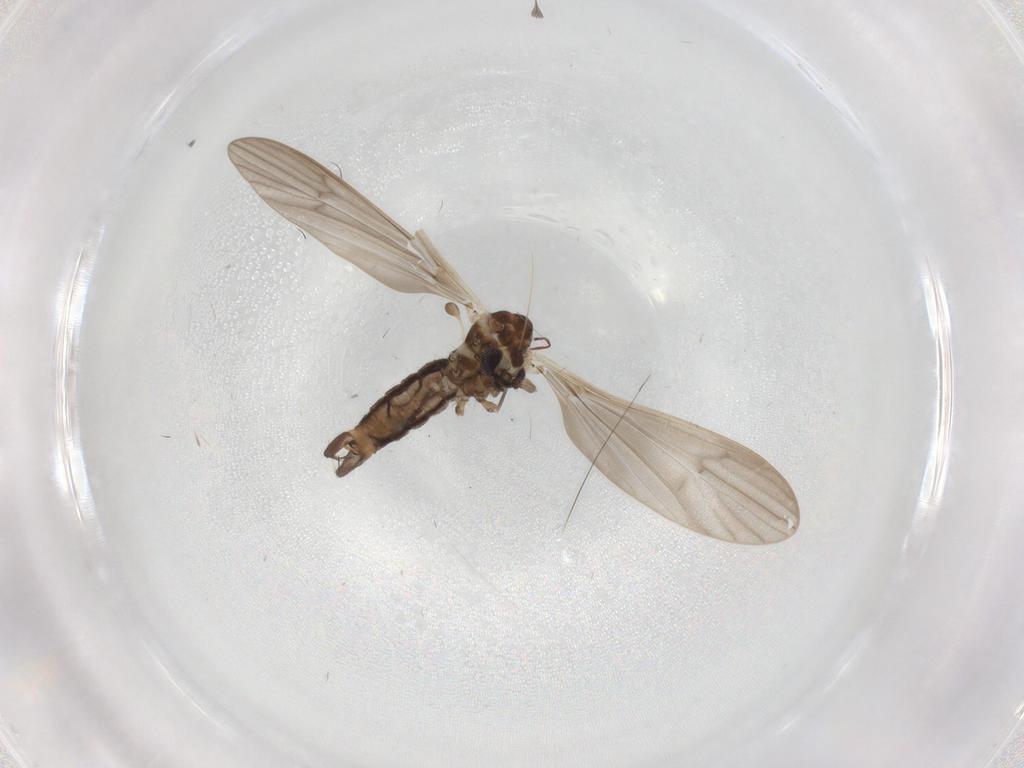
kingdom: Animalia
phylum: Arthropoda
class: Insecta
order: Diptera
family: Limoniidae
